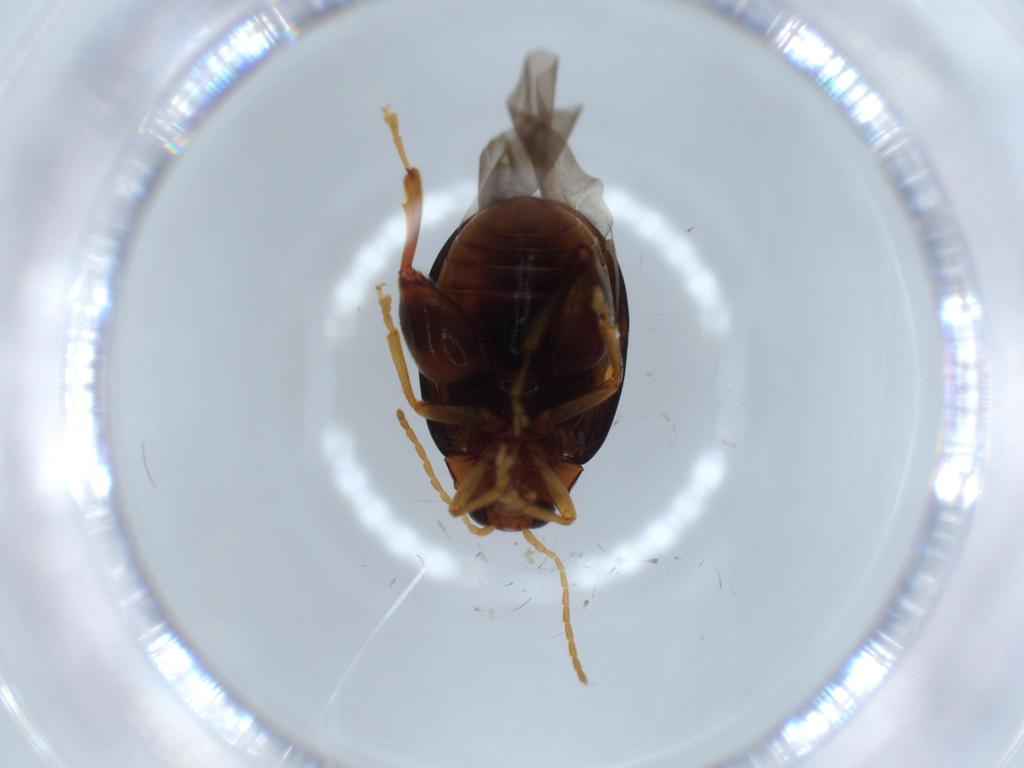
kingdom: Animalia
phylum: Arthropoda
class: Insecta
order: Coleoptera
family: Chrysomelidae
